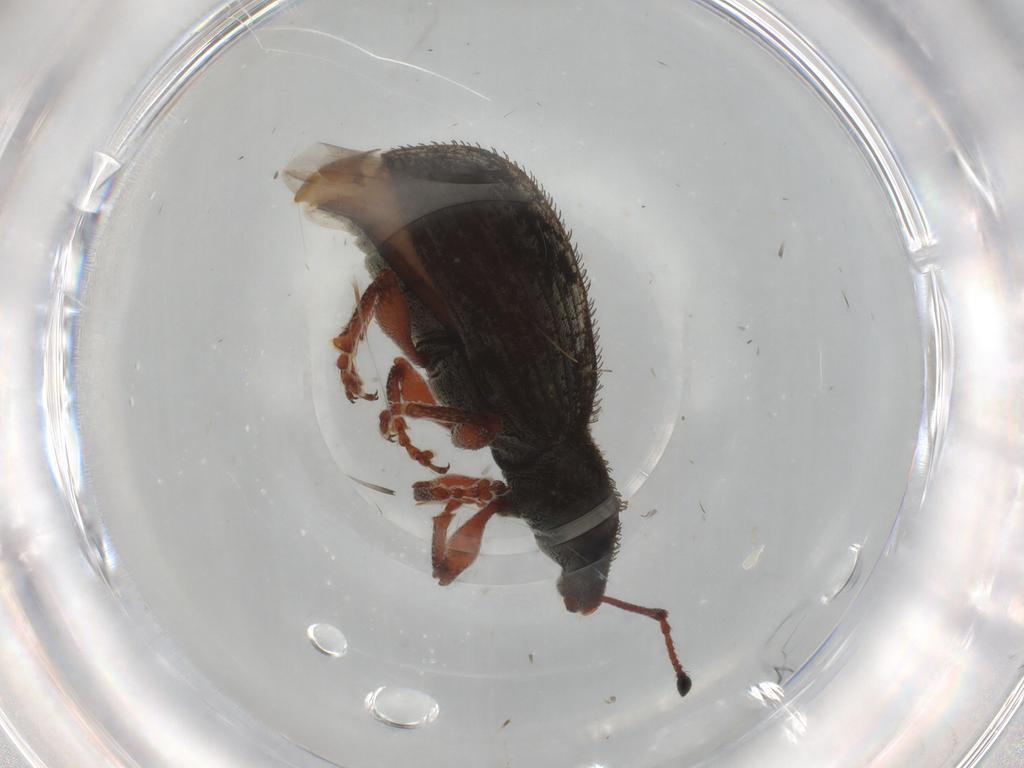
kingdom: Animalia
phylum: Arthropoda
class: Insecta
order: Coleoptera
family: Curculionidae
